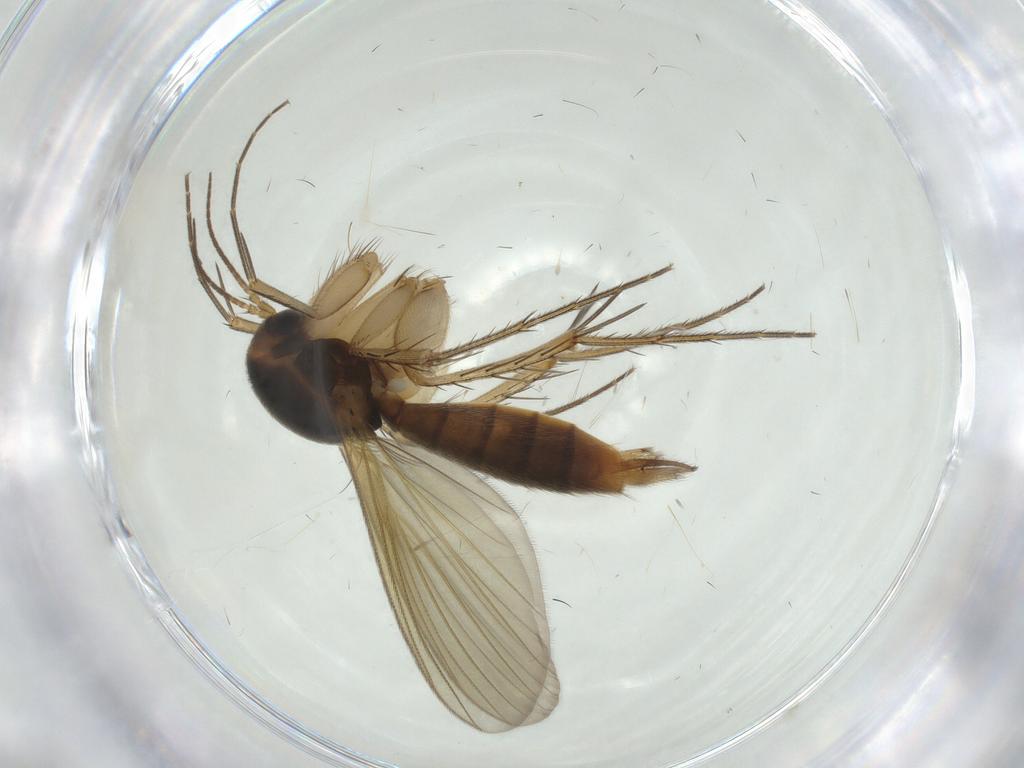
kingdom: Animalia
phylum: Arthropoda
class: Insecta
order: Diptera
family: Mycetophilidae
